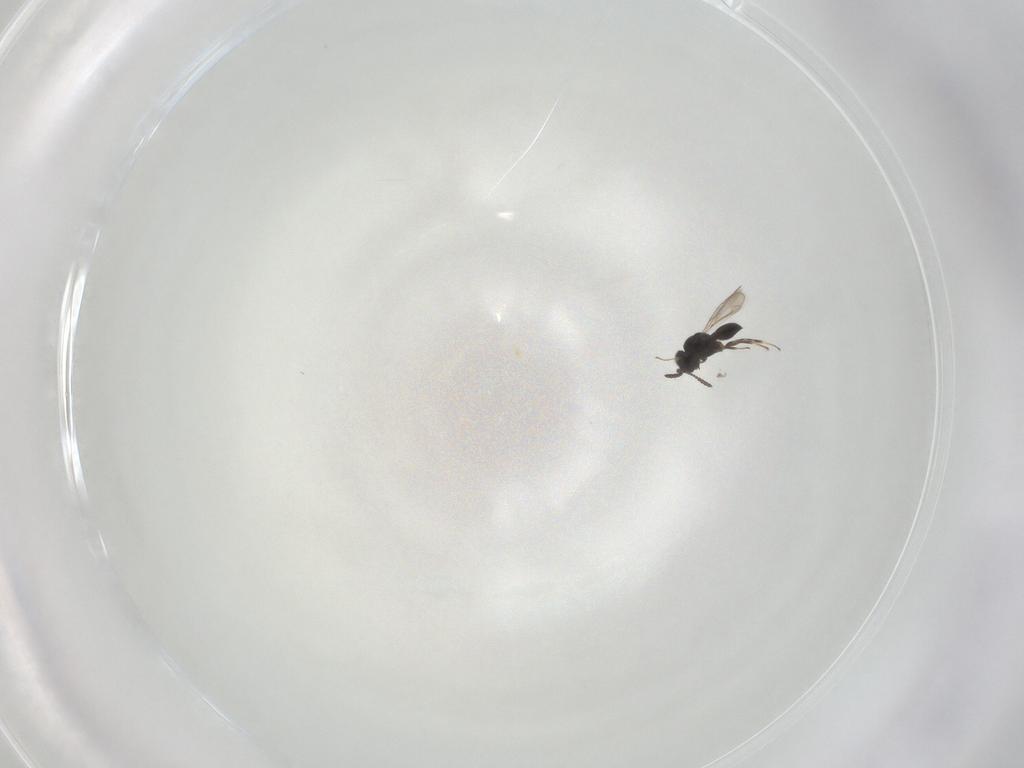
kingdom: Animalia
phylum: Arthropoda
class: Insecta
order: Hymenoptera
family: Scelionidae
